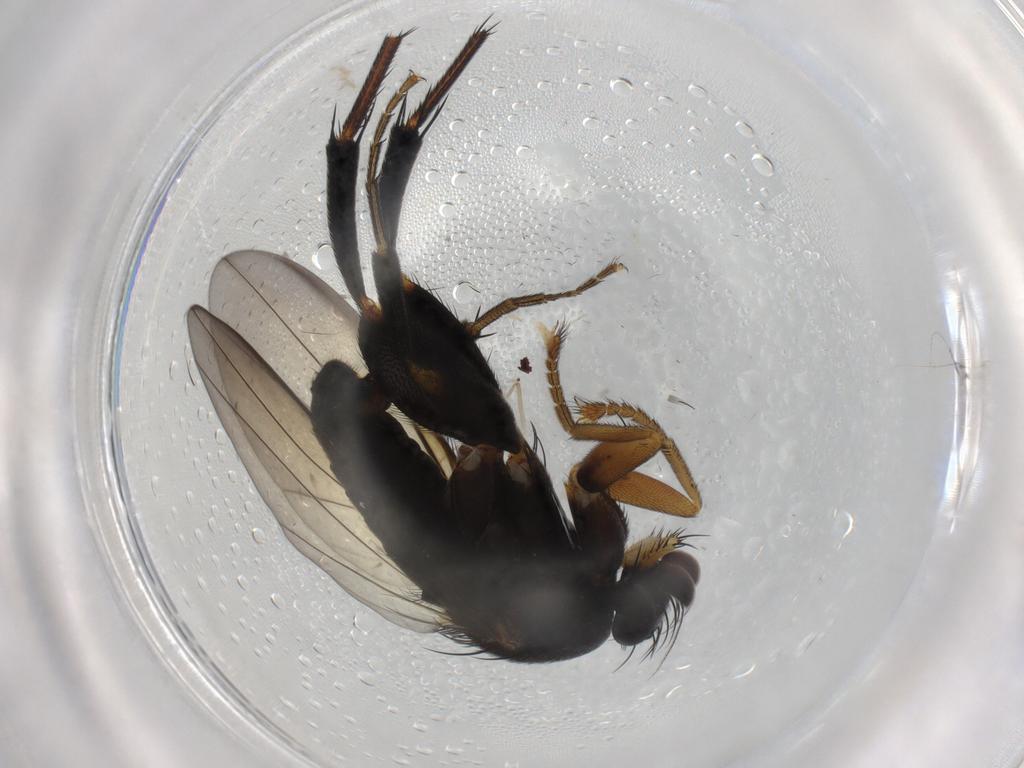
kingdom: Animalia
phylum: Arthropoda
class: Insecta
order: Diptera
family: Phoridae
